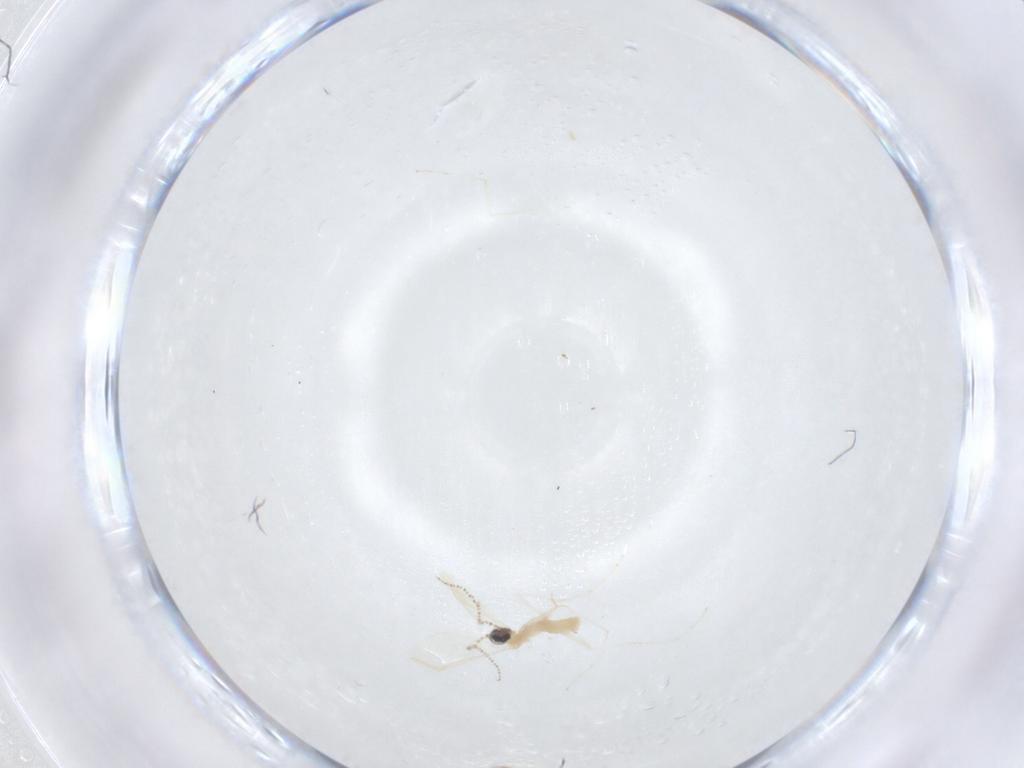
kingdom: Animalia
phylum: Arthropoda
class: Insecta
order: Diptera
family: Cecidomyiidae
